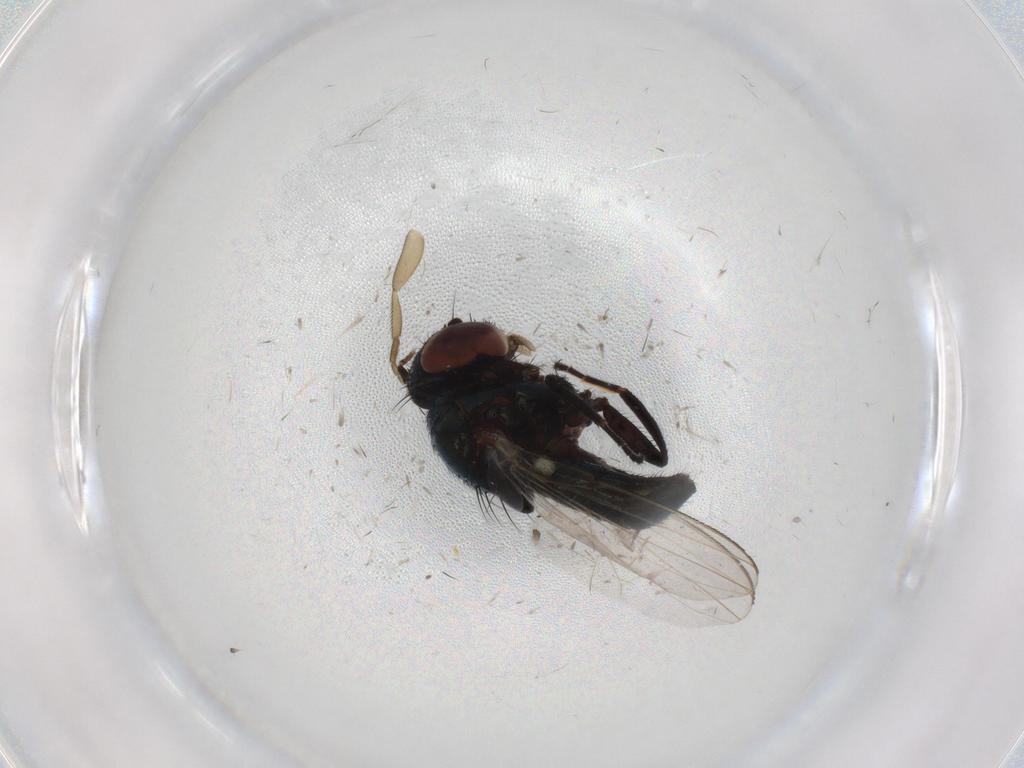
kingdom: Animalia
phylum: Arthropoda
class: Insecta
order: Diptera
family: Milichiidae
